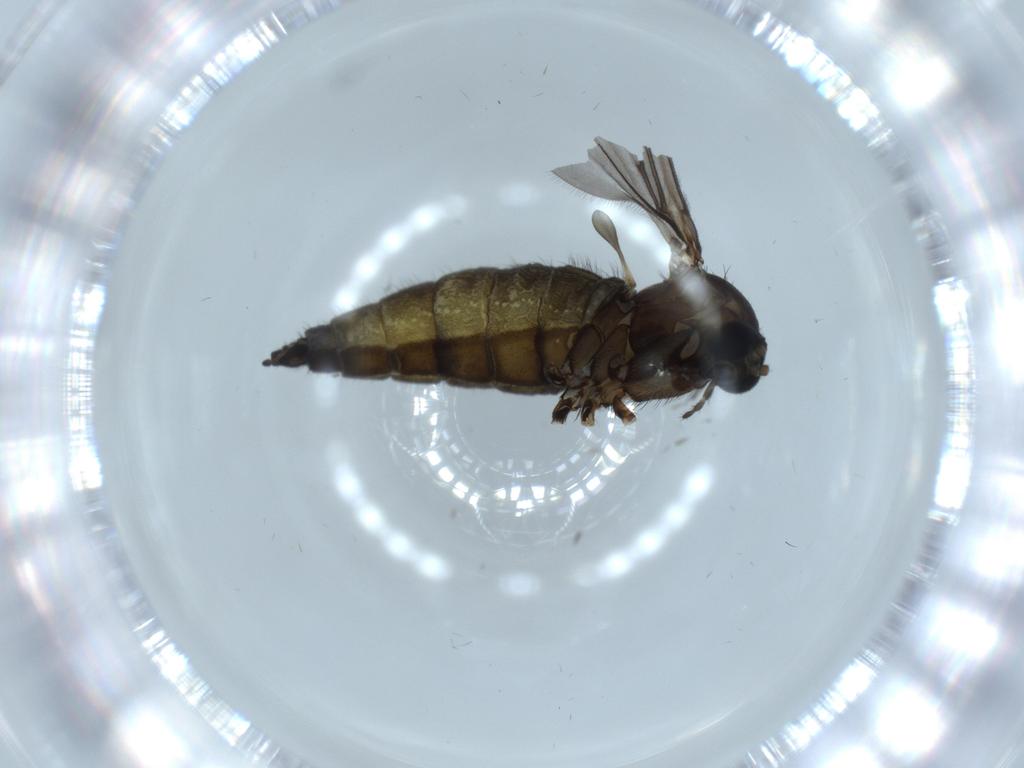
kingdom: Animalia
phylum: Arthropoda
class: Insecta
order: Diptera
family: Sciaridae
